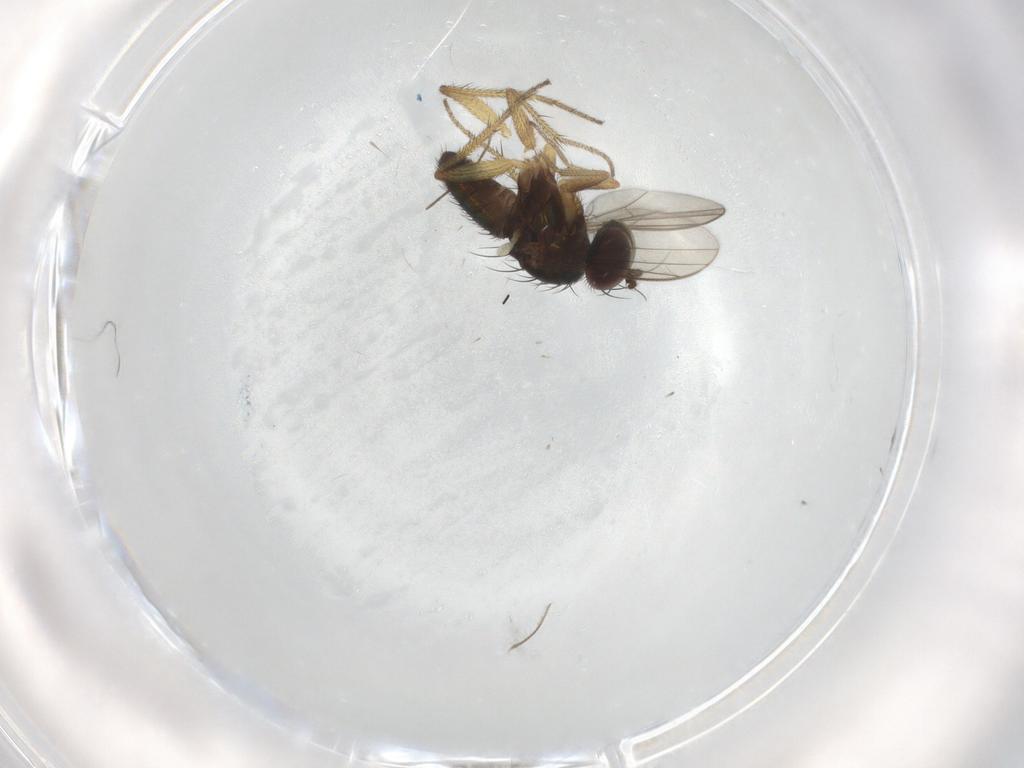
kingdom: Animalia
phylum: Arthropoda
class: Insecta
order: Diptera
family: Chironomidae
